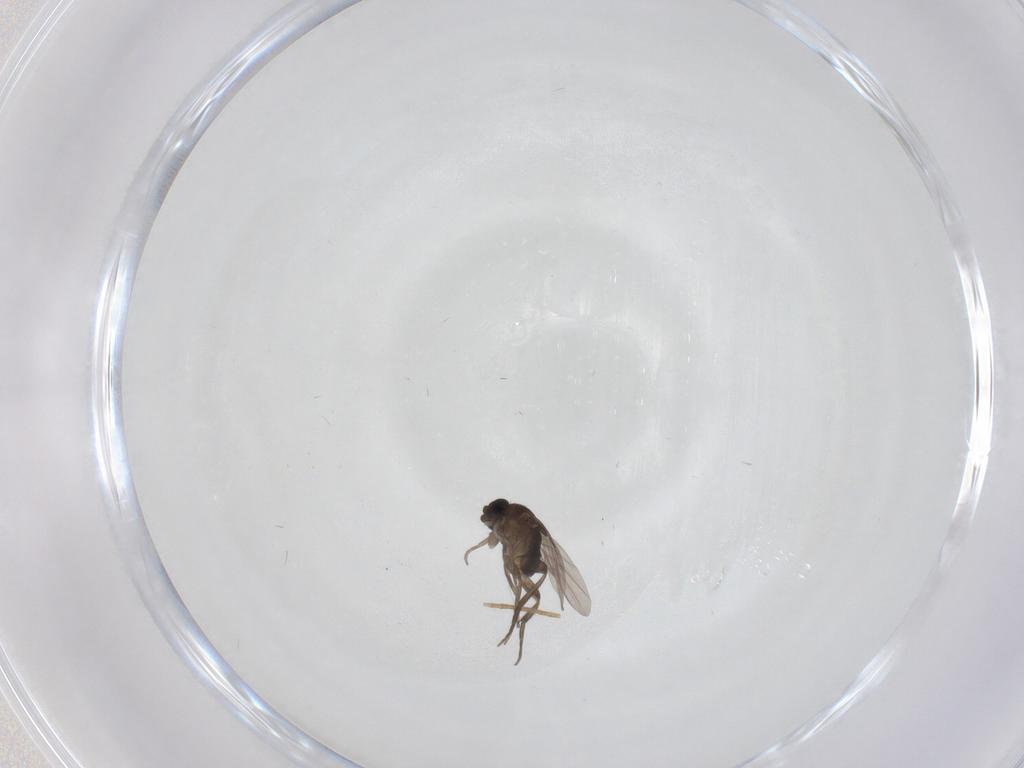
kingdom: Animalia
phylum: Arthropoda
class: Insecta
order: Diptera
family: Phoridae
